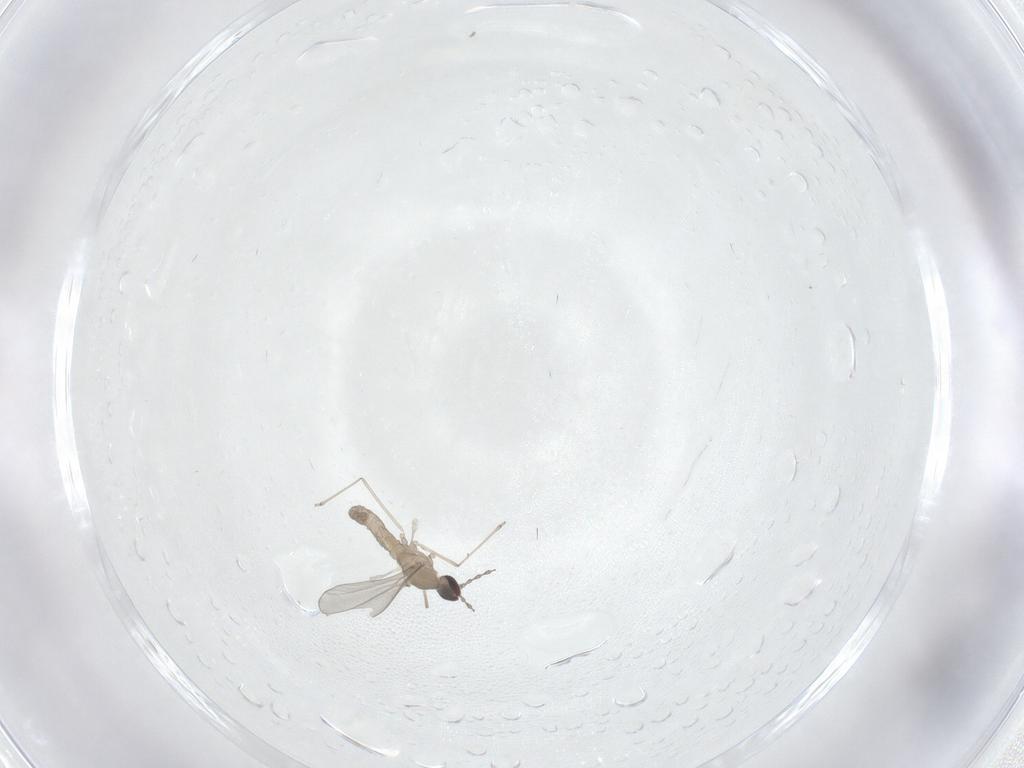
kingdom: Animalia
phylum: Arthropoda
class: Insecta
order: Diptera
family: Cecidomyiidae
